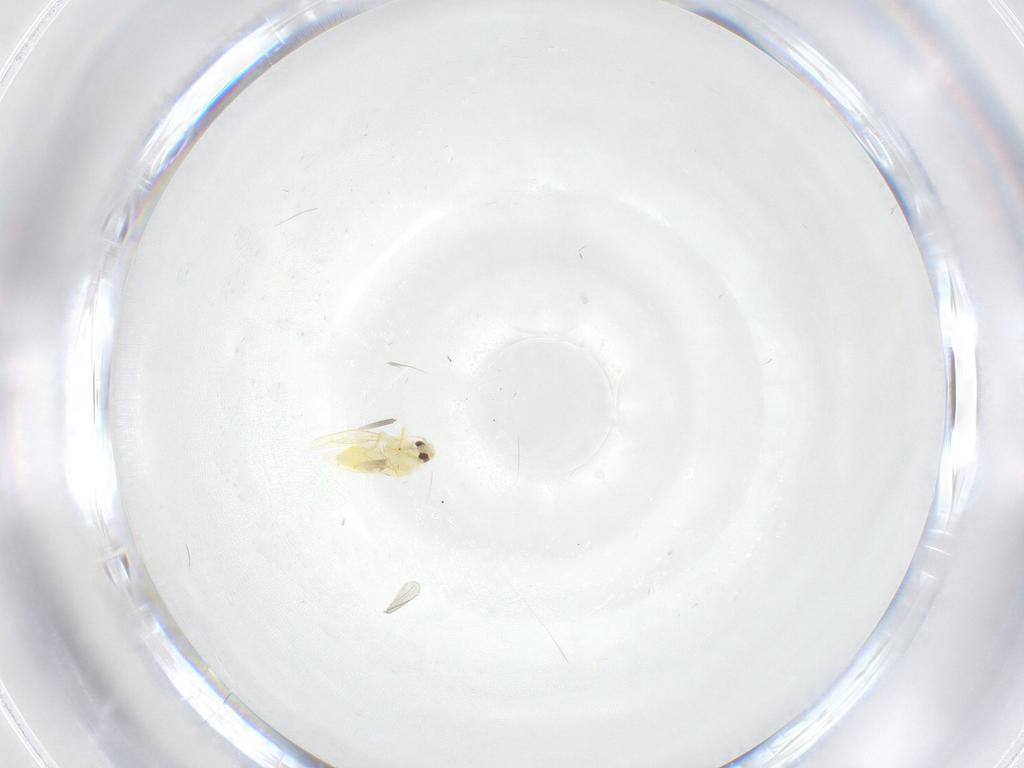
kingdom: Animalia
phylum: Arthropoda
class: Insecta
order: Hemiptera
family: Aleyrodidae
